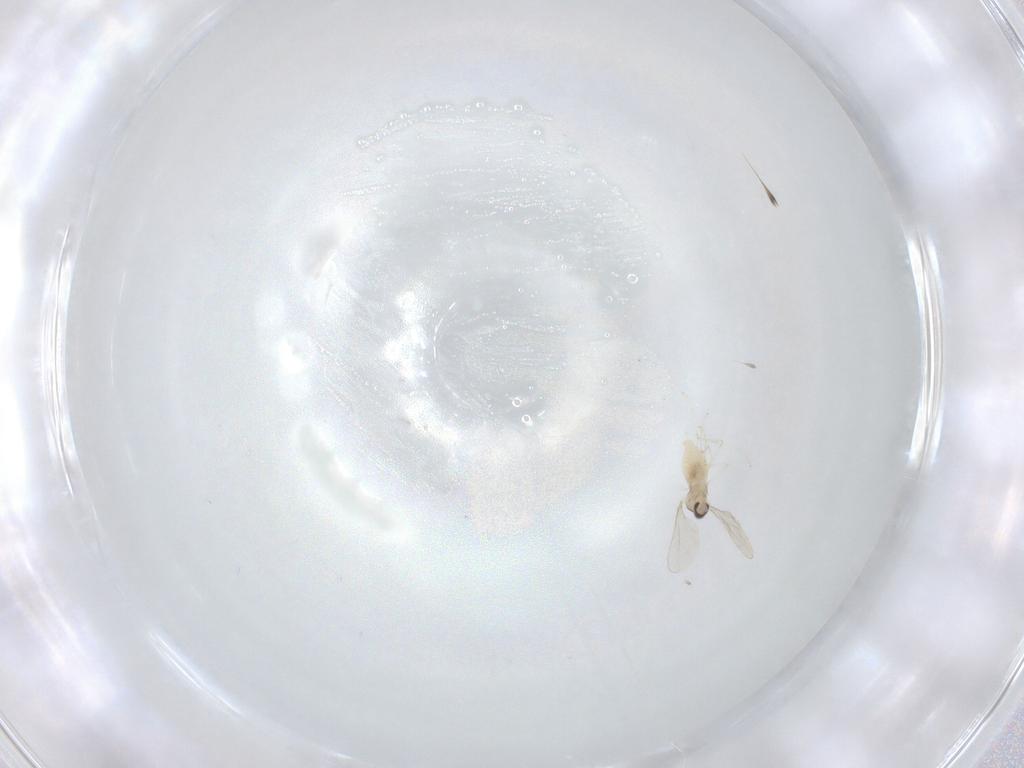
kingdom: Animalia
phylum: Arthropoda
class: Insecta
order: Diptera
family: Cecidomyiidae
